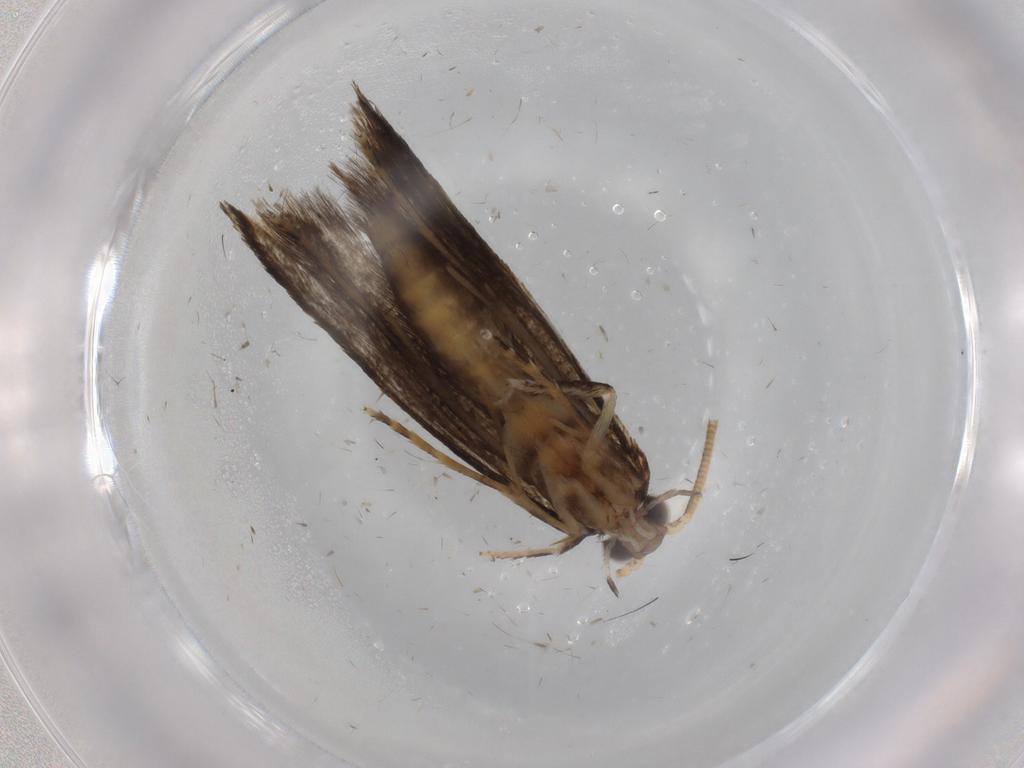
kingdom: Animalia
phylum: Arthropoda
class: Insecta
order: Lepidoptera
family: Tineidae
